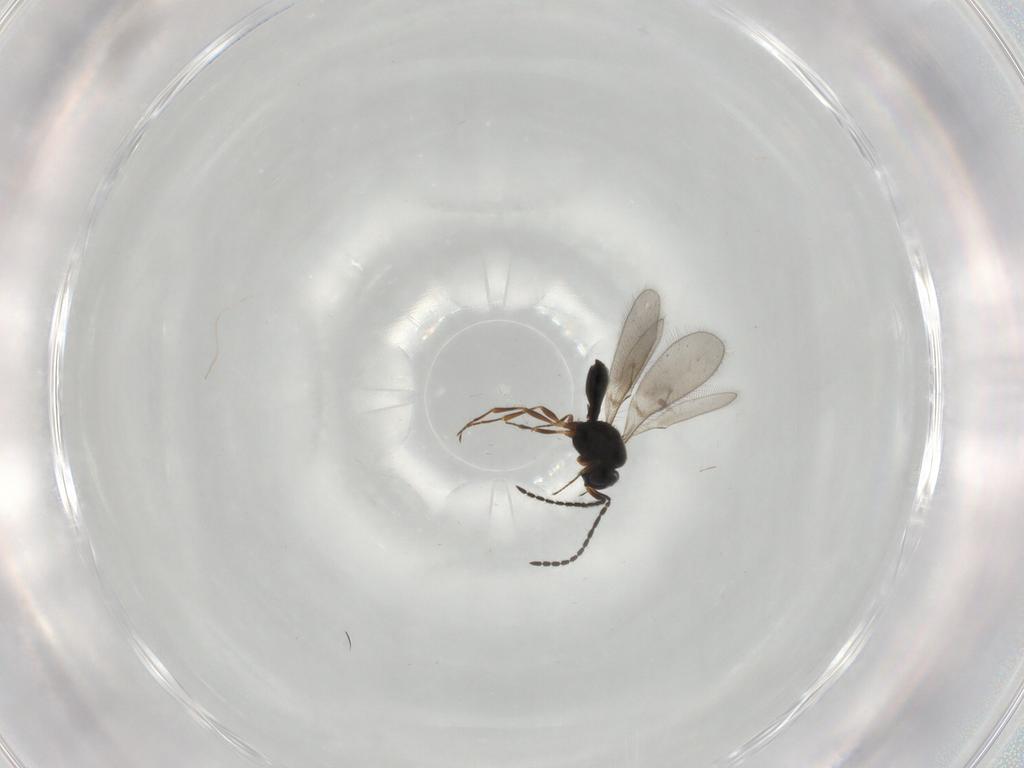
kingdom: Animalia
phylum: Arthropoda
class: Insecta
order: Hymenoptera
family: Scelionidae
